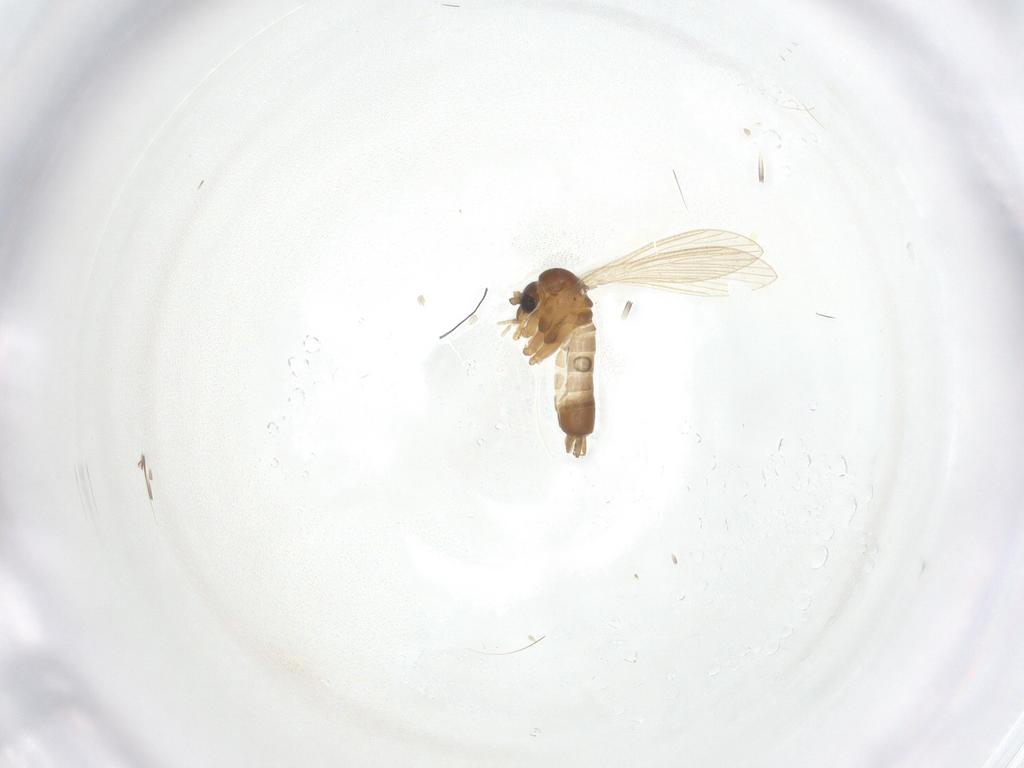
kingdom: Animalia
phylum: Arthropoda
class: Insecta
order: Diptera
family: Psychodidae
